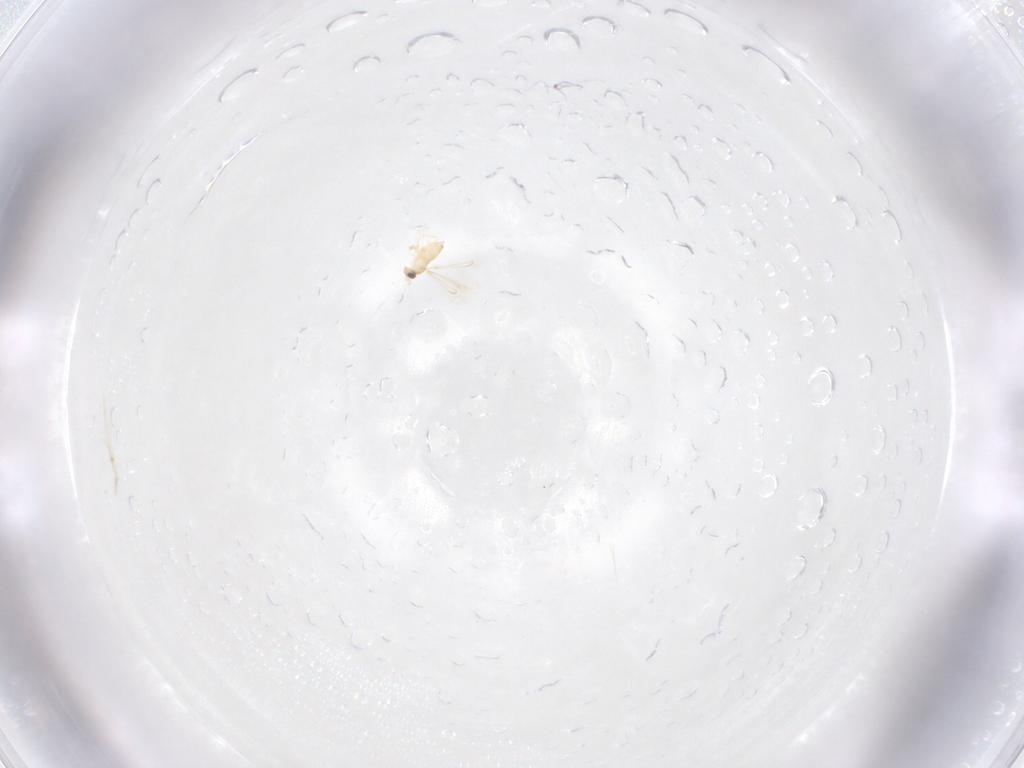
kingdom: Animalia
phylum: Arthropoda
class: Insecta
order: Hymenoptera
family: Mymaridae
